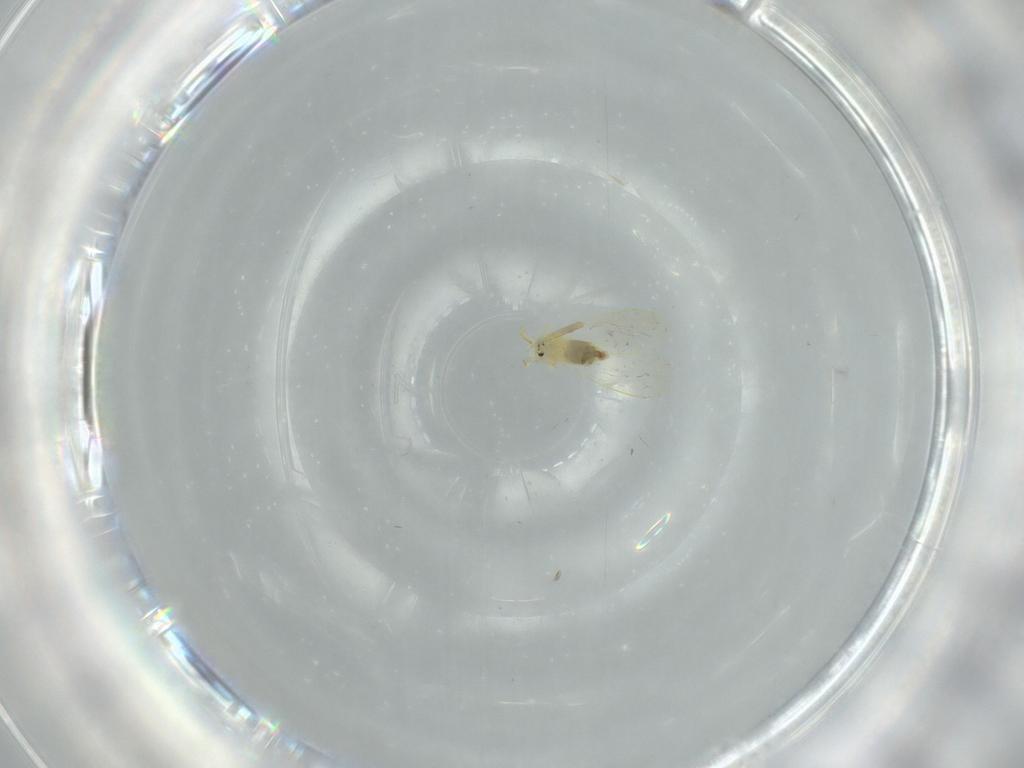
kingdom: Animalia
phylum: Arthropoda
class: Insecta
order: Hemiptera
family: Aleyrodidae
